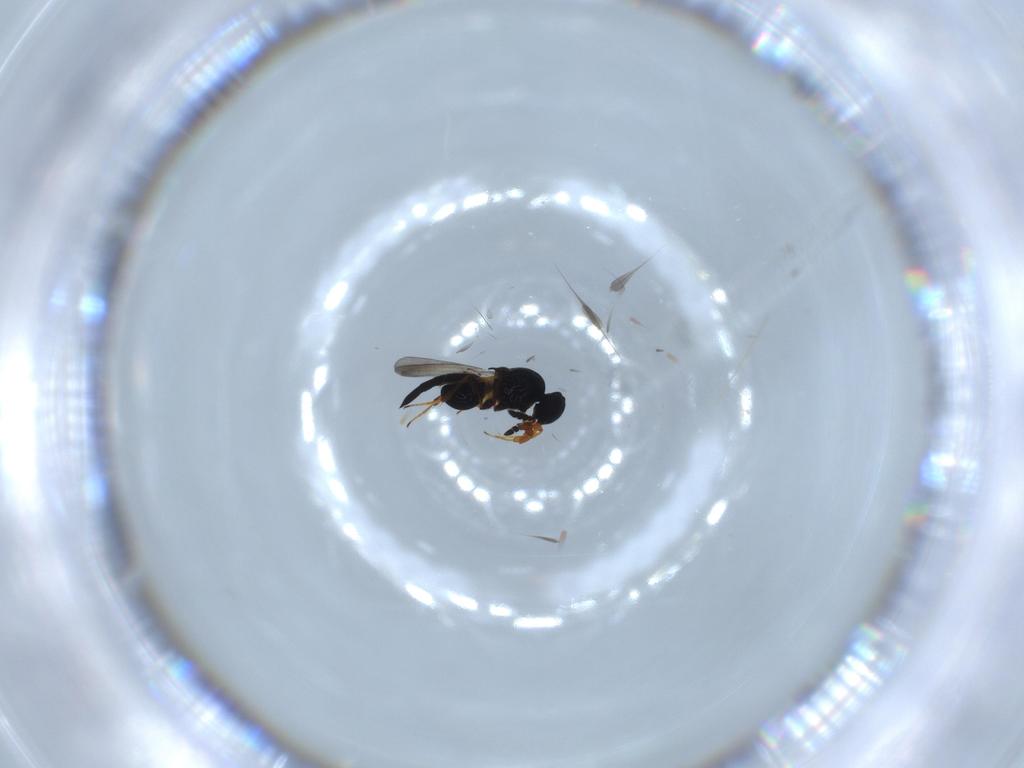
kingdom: Animalia
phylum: Arthropoda
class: Insecta
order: Hymenoptera
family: Platygastridae
